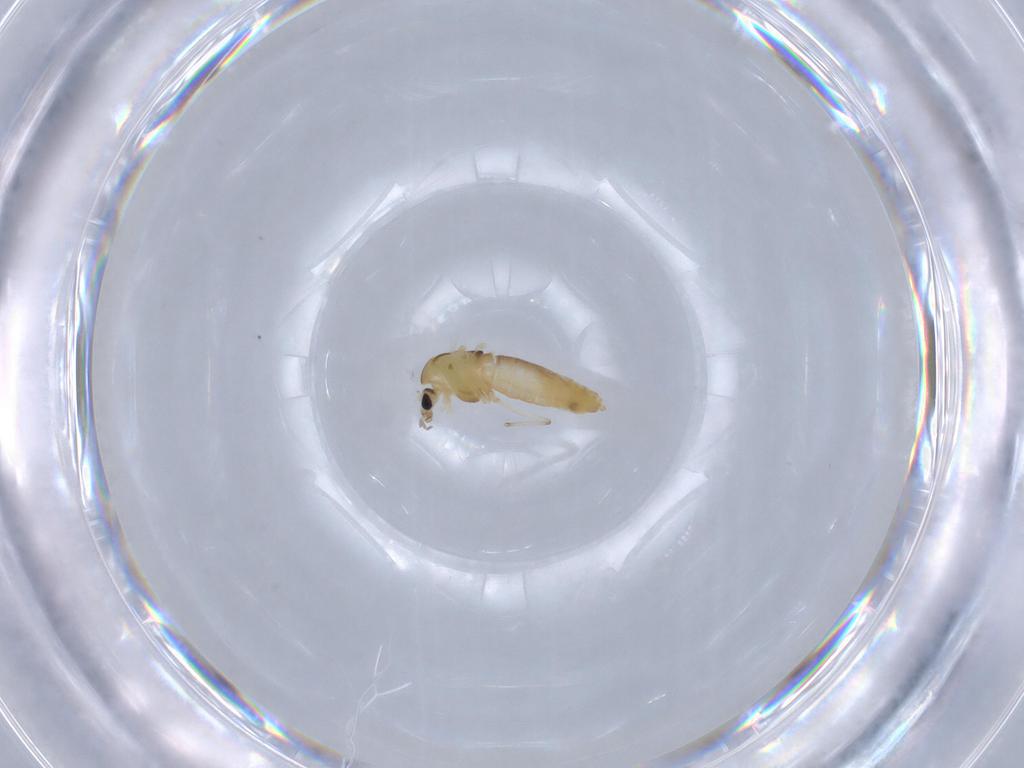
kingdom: Animalia
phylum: Arthropoda
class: Insecta
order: Diptera
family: Chironomidae
